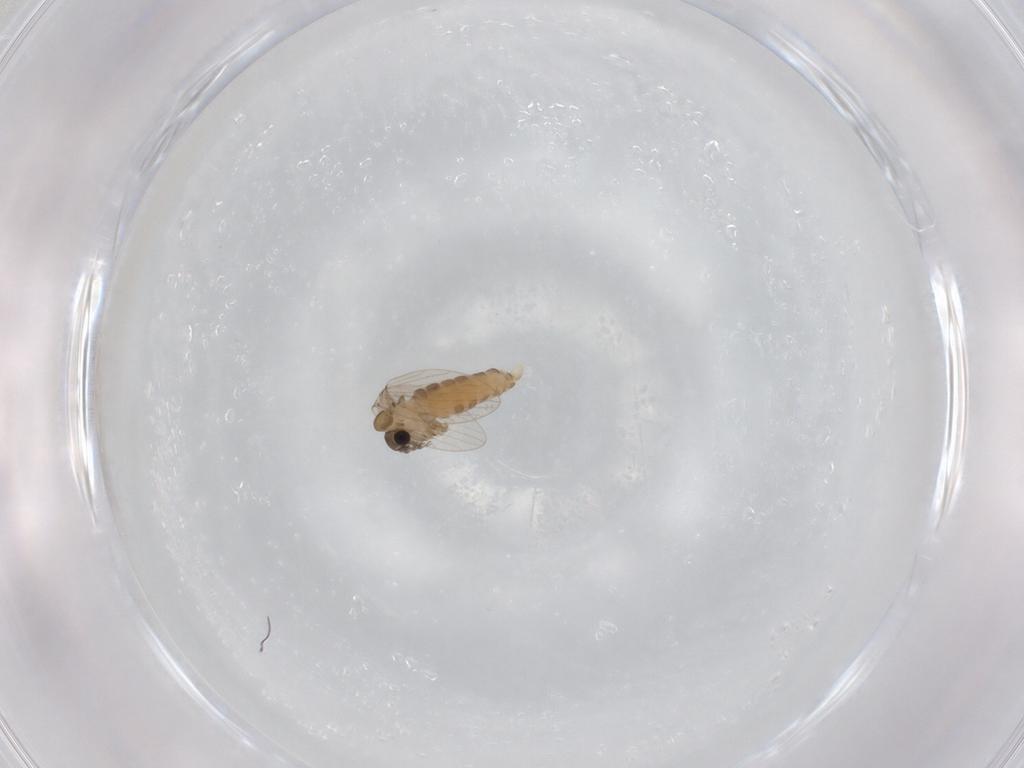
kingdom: Animalia
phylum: Arthropoda
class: Insecta
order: Diptera
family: Psychodidae
